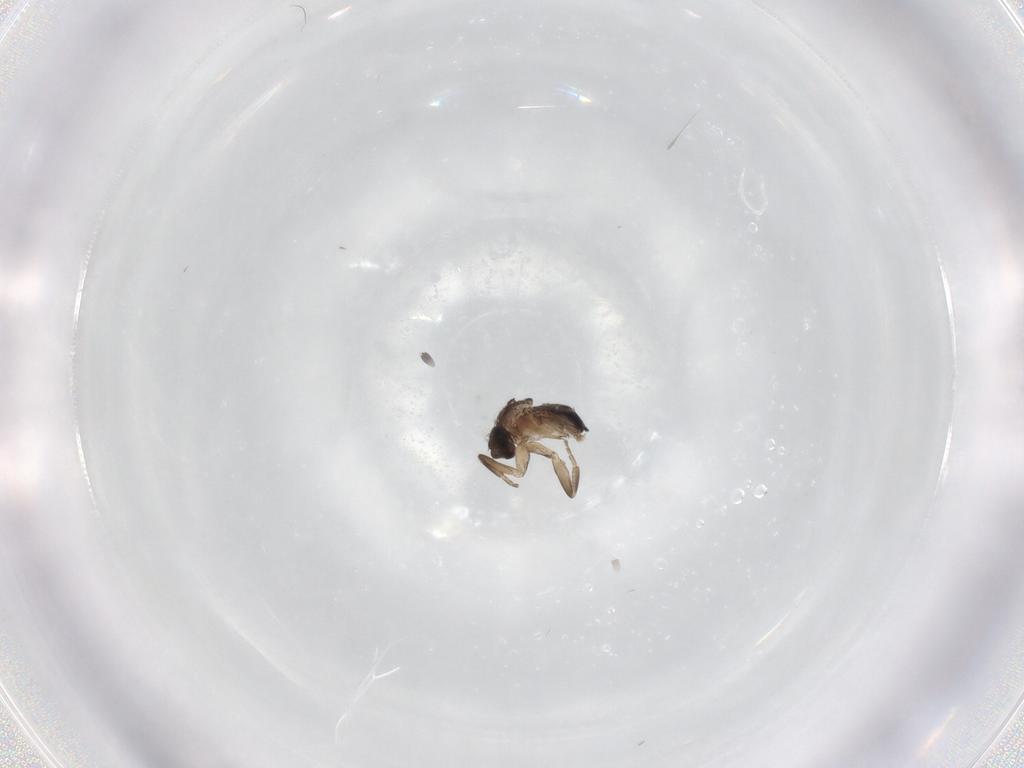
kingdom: Animalia
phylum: Arthropoda
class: Insecta
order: Diptera
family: Sciaridae
